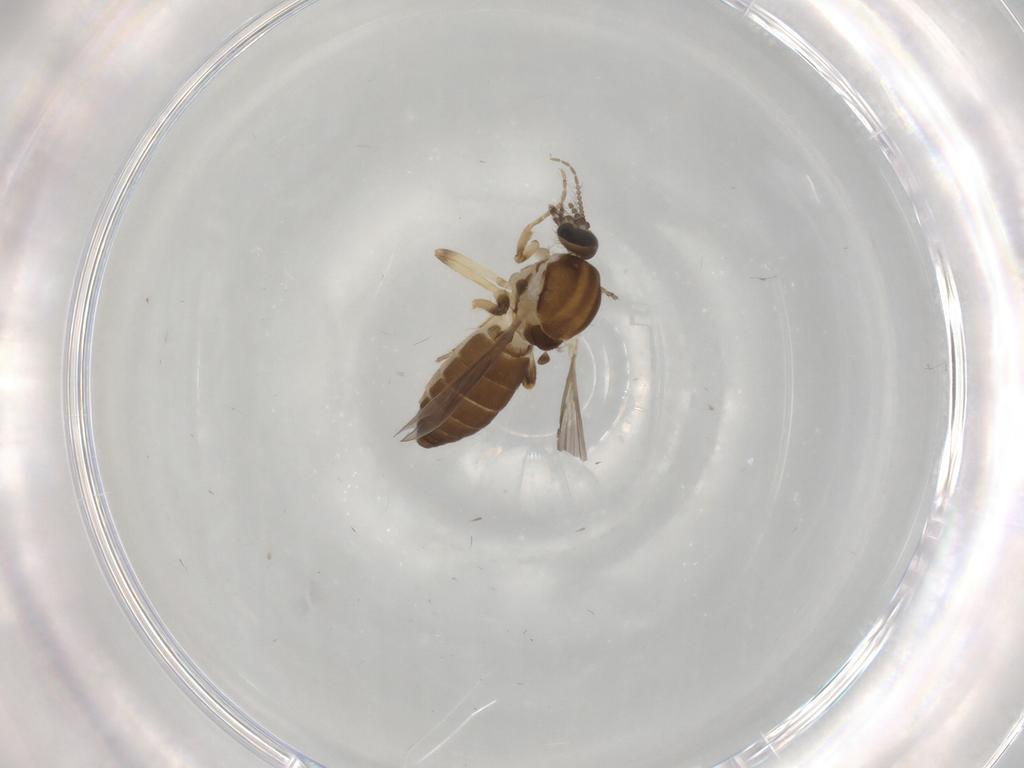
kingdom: Animalia
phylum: Arthropoda
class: Insecta
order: Diptera
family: Ceratopogonidae
